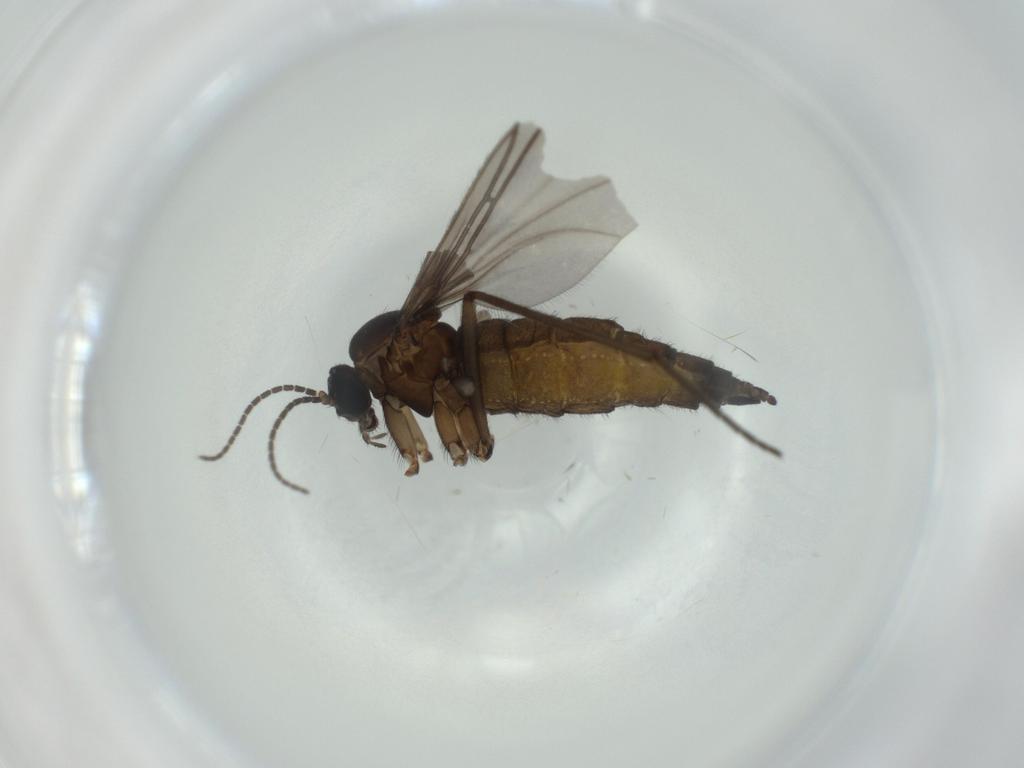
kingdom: Animalia
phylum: Arthropoda
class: Insecta
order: Diptera
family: Sciaridae
